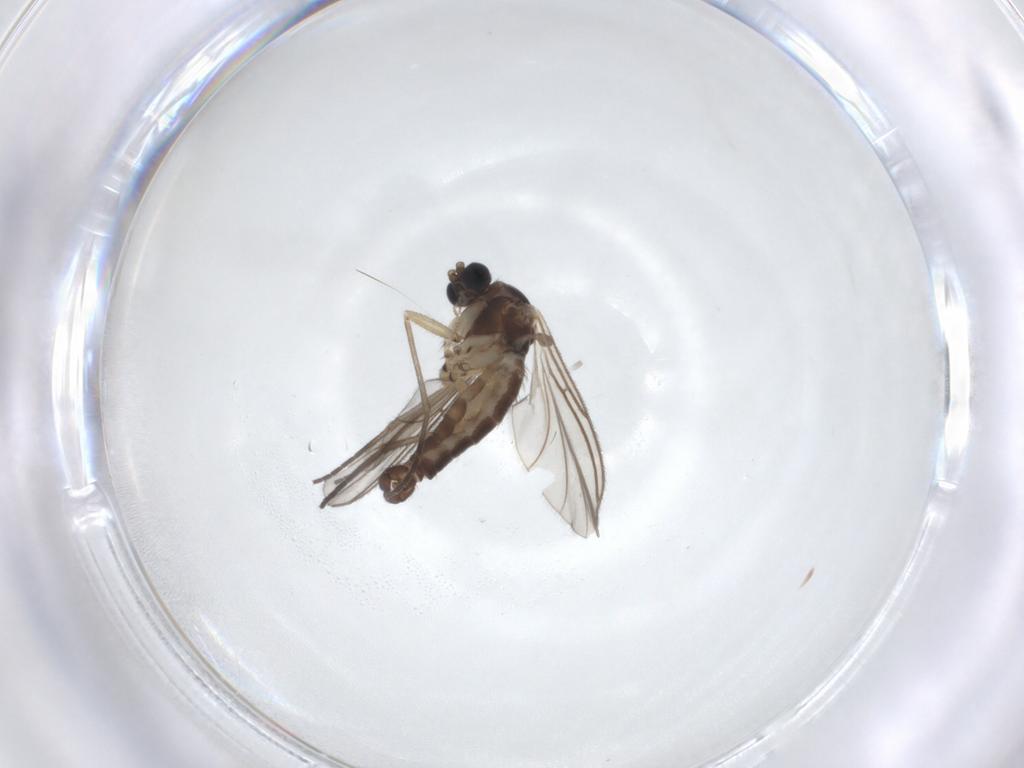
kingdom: Animalia
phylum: Arthropoda
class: Insecta
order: Diptera
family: Sciaridae
